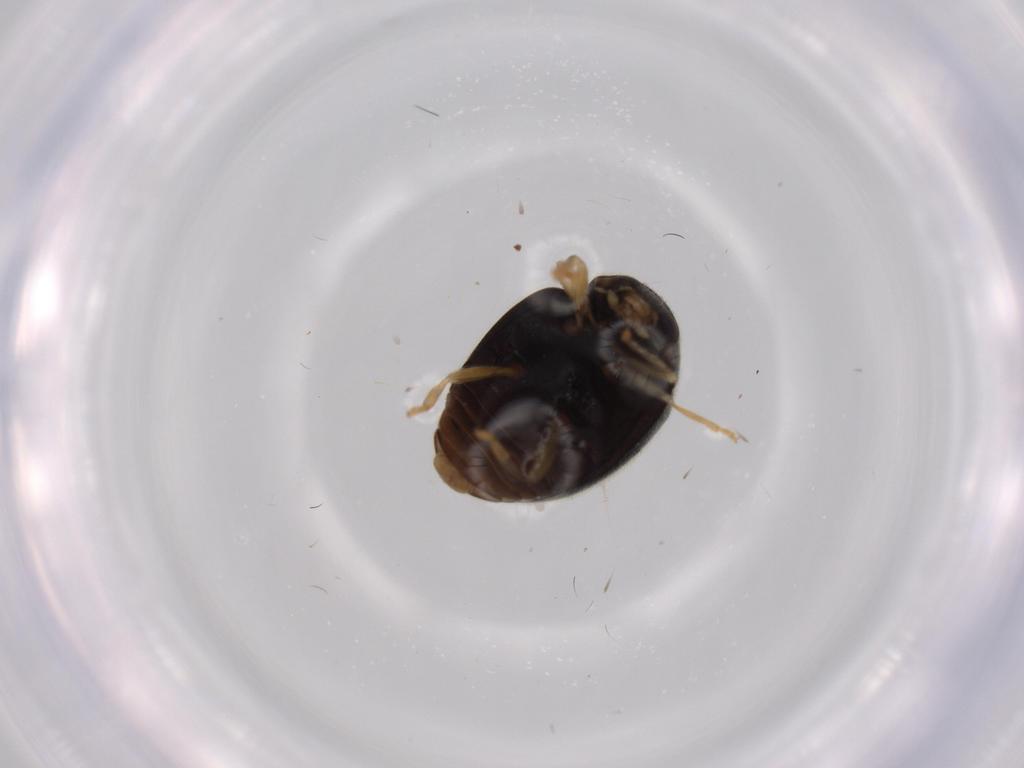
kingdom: Animalia
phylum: Arthropoda
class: Insecta
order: Coleoptera
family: Coccinellidae
